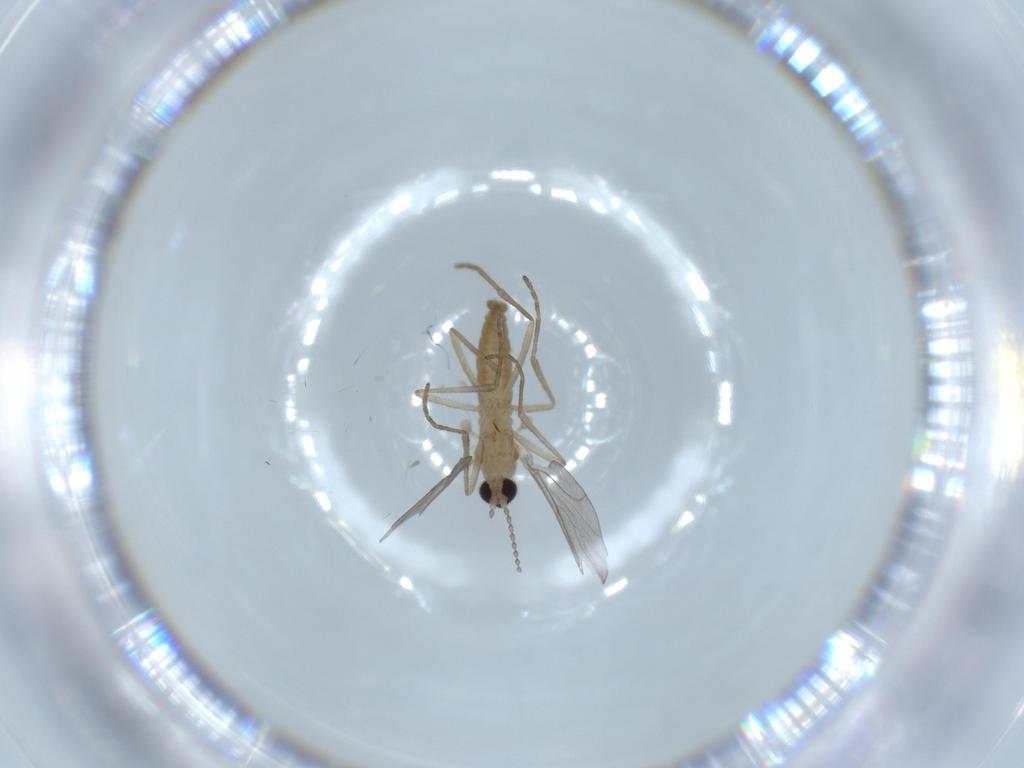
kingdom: Animalia
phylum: Arthropoda
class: Insecta
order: Diptera
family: Cecidomyiidae
